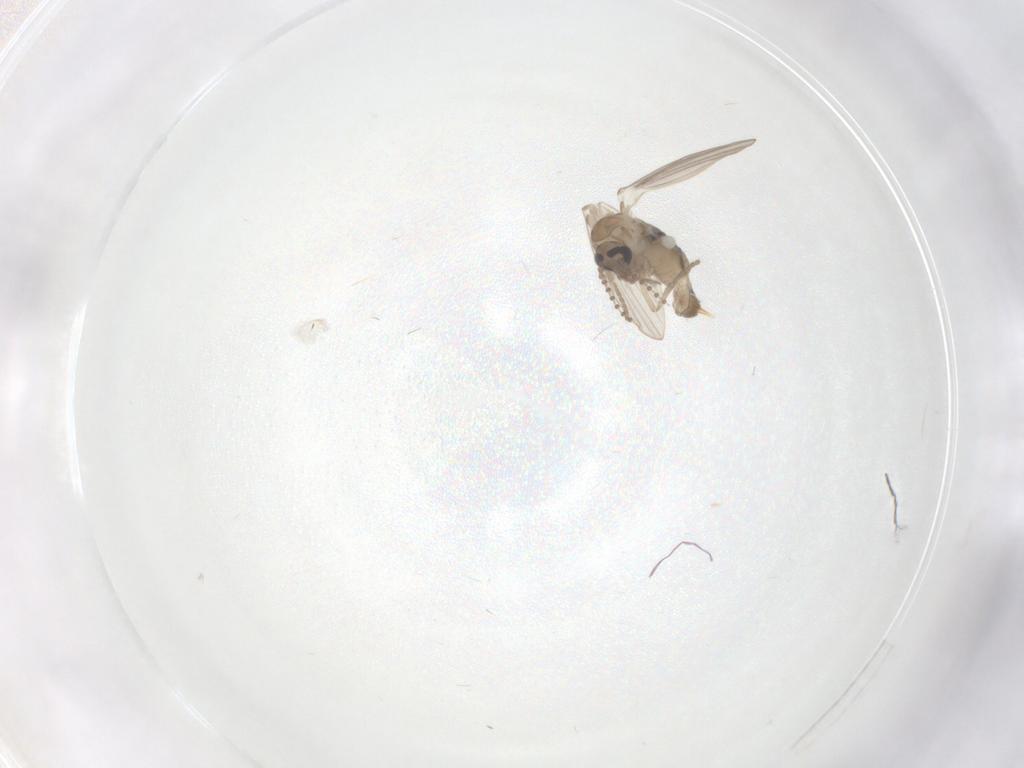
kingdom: Animalia
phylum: Arthropoda
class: Insecta
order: Diptera
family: Psychodidae
